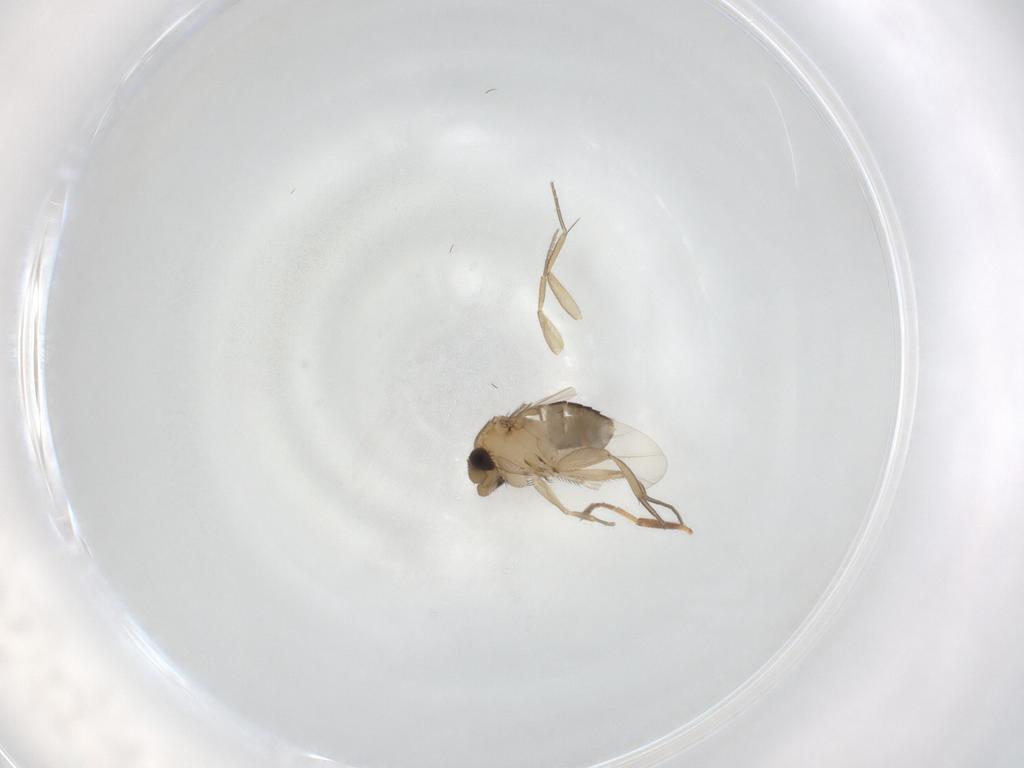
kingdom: Animalia
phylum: Arthropoda
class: Insecta
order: Diptera
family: Phoridae
